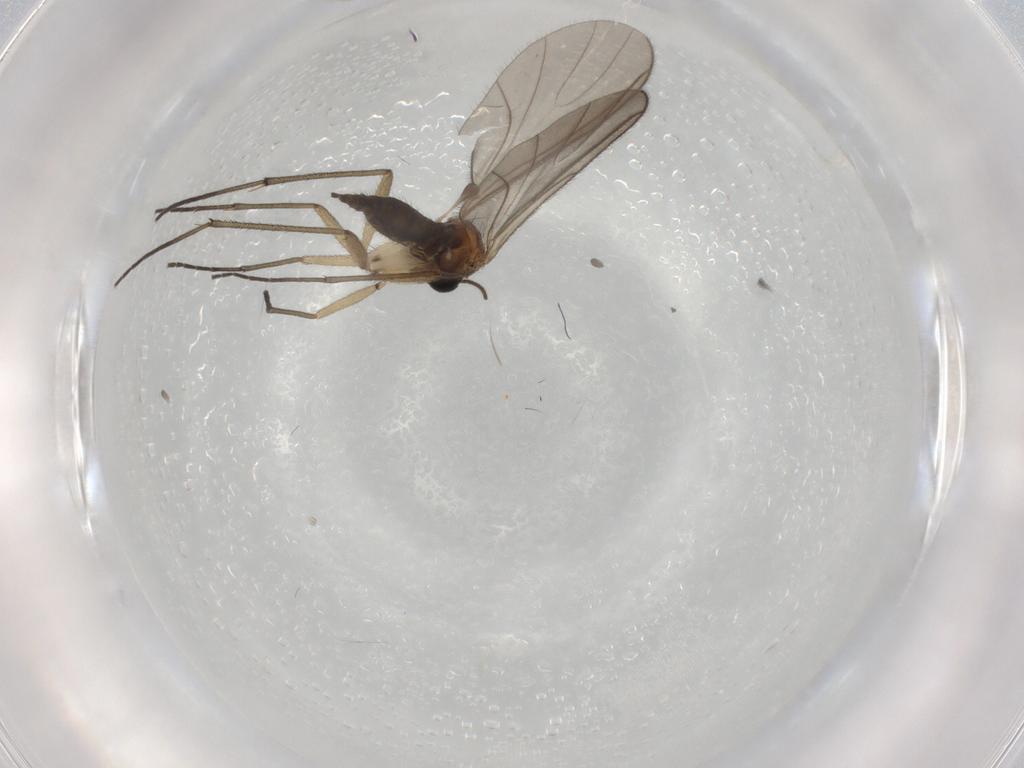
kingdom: Animalia
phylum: Arthropoda
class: Insecta
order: Diptera
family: Sciaridae
